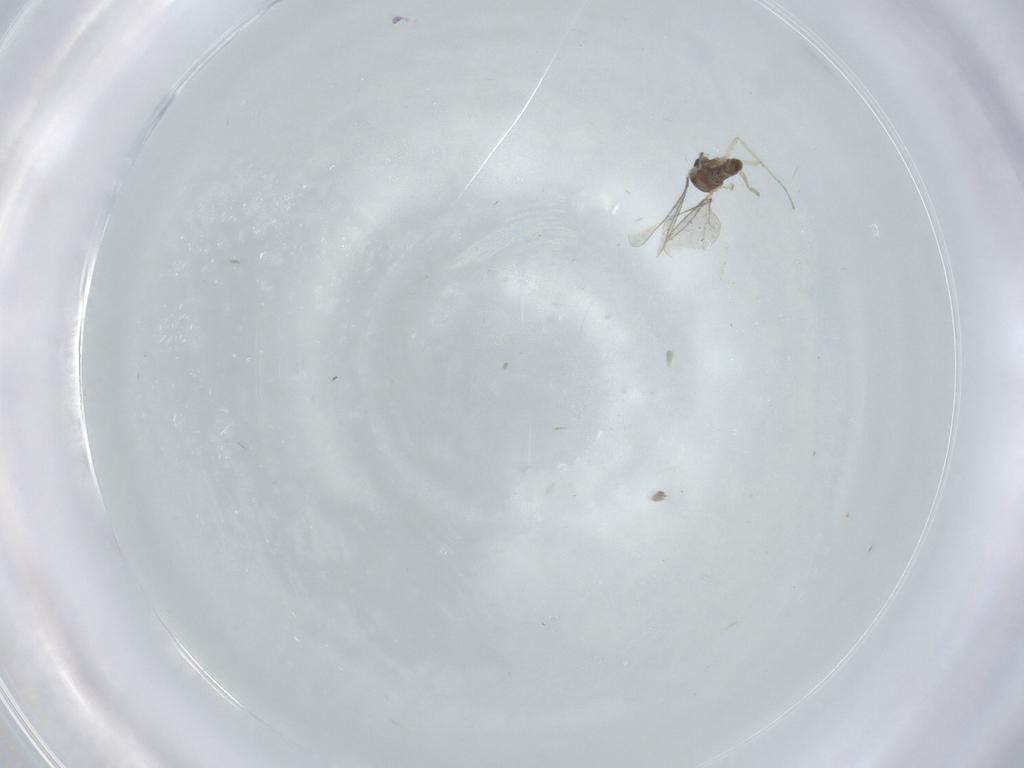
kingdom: Animalia
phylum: Arthropoda
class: Insecta
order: Diptera
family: Cecidomyiidae
